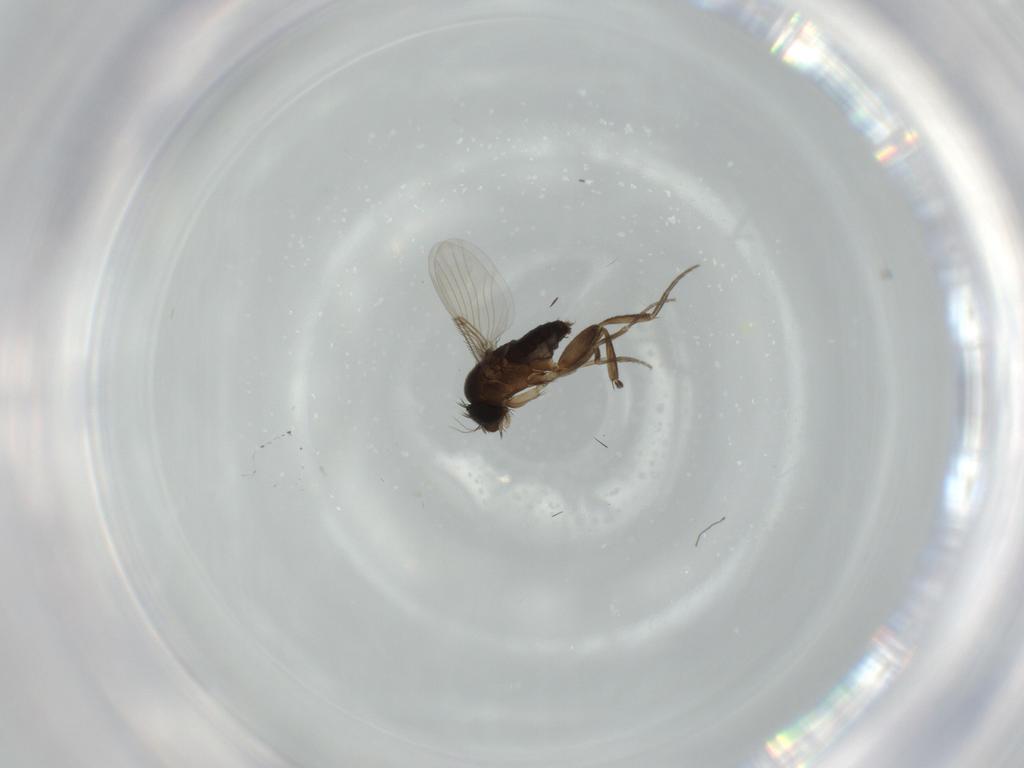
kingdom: Animalia
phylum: Arthropoda
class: Insecta
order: Diptera
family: Phoridae
